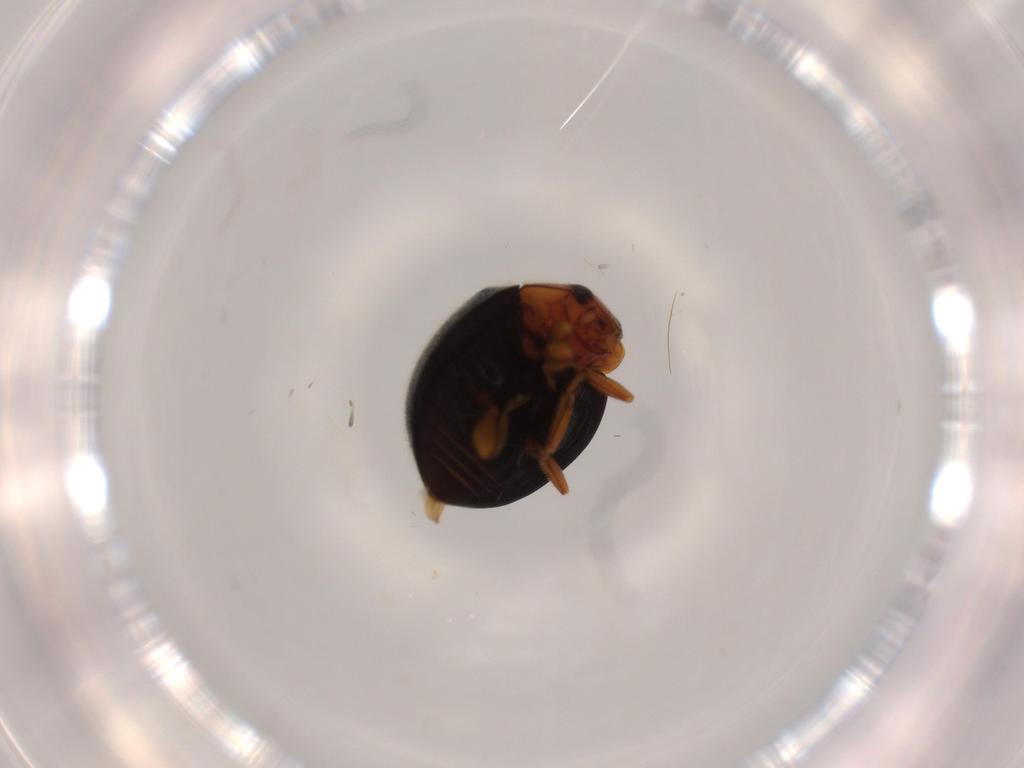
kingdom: Animalia
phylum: Arthropoda
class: Insecta
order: Coleoptera
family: Coccinellidae
